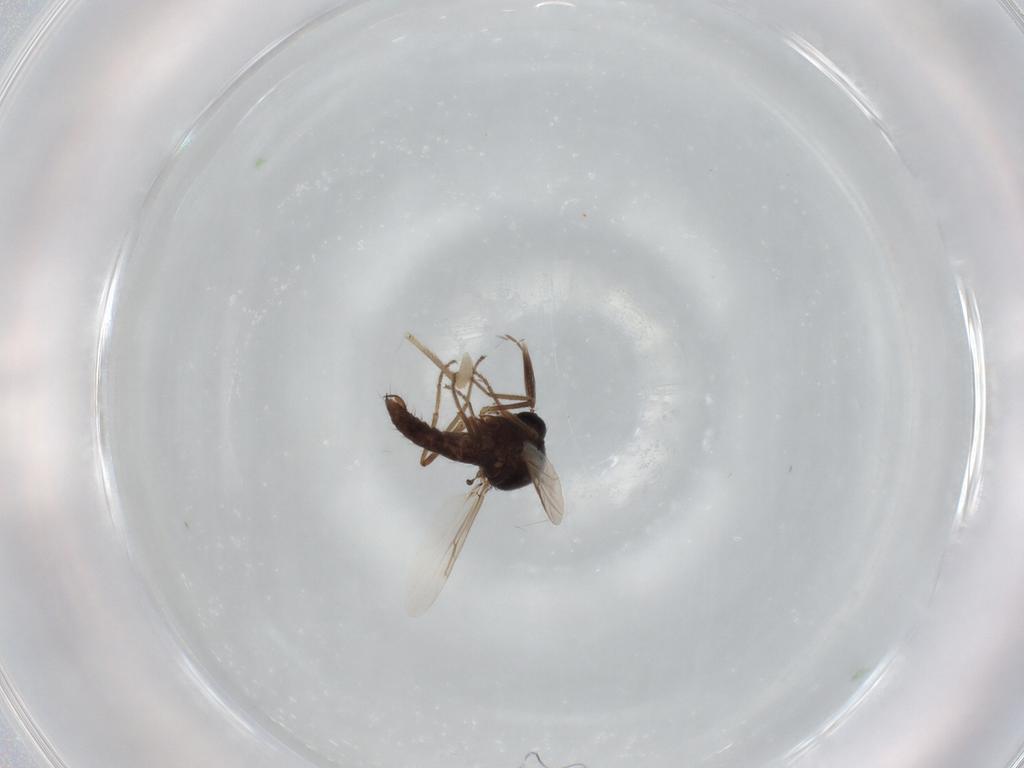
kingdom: Animalia
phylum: Arthropoda
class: Insecta
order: Diptera
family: Ceratopogonidae
